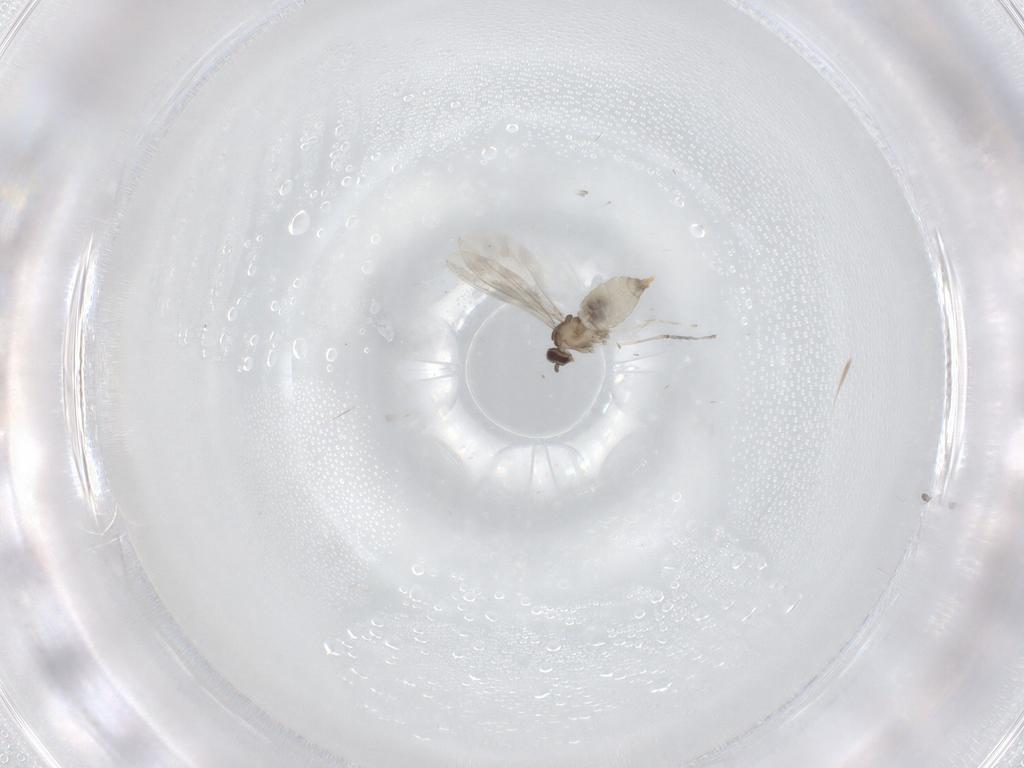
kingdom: Animalia
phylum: Arthropoda
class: Insecta
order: Diptera
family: Cecidomyiidae
